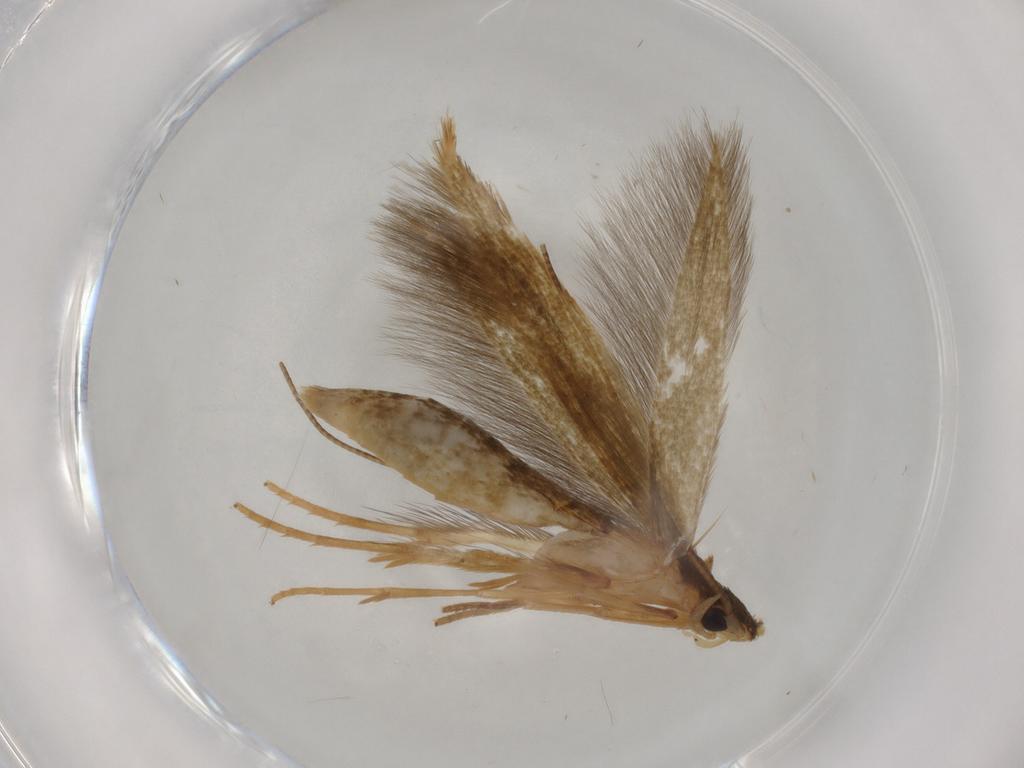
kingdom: Animalia
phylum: Arthropoda
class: Insecta
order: Lepidoptera
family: Tineidae
